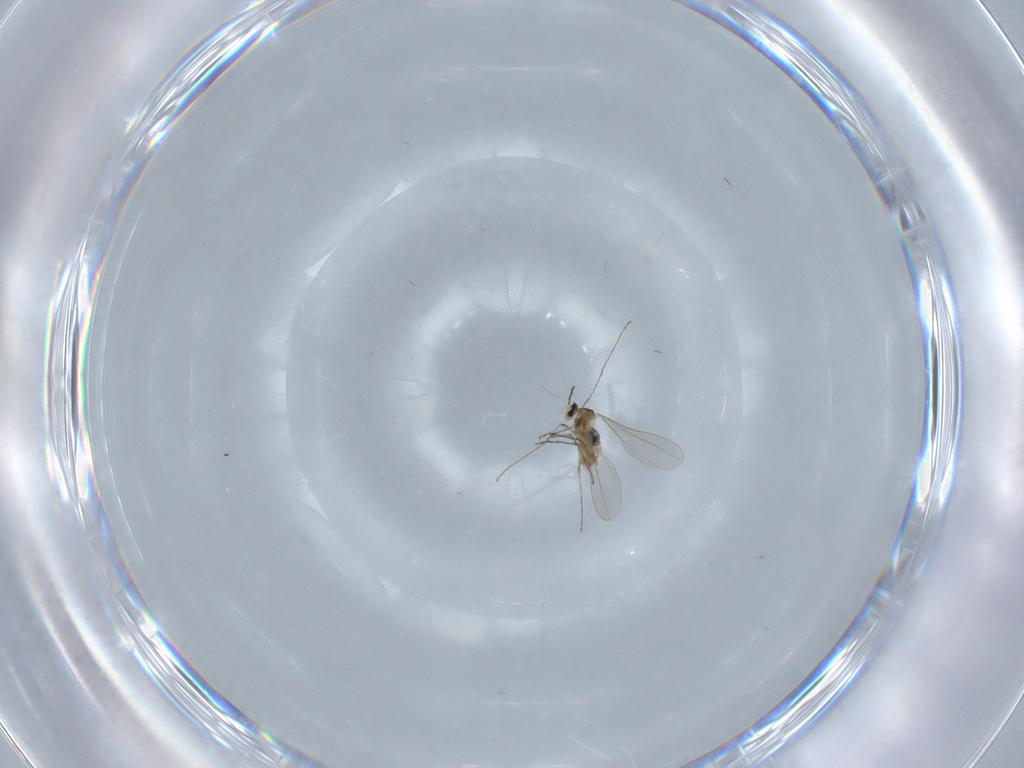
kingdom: Animalia
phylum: Arthropoda
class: Insecta
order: Diptera
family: Cecidomyiidae
